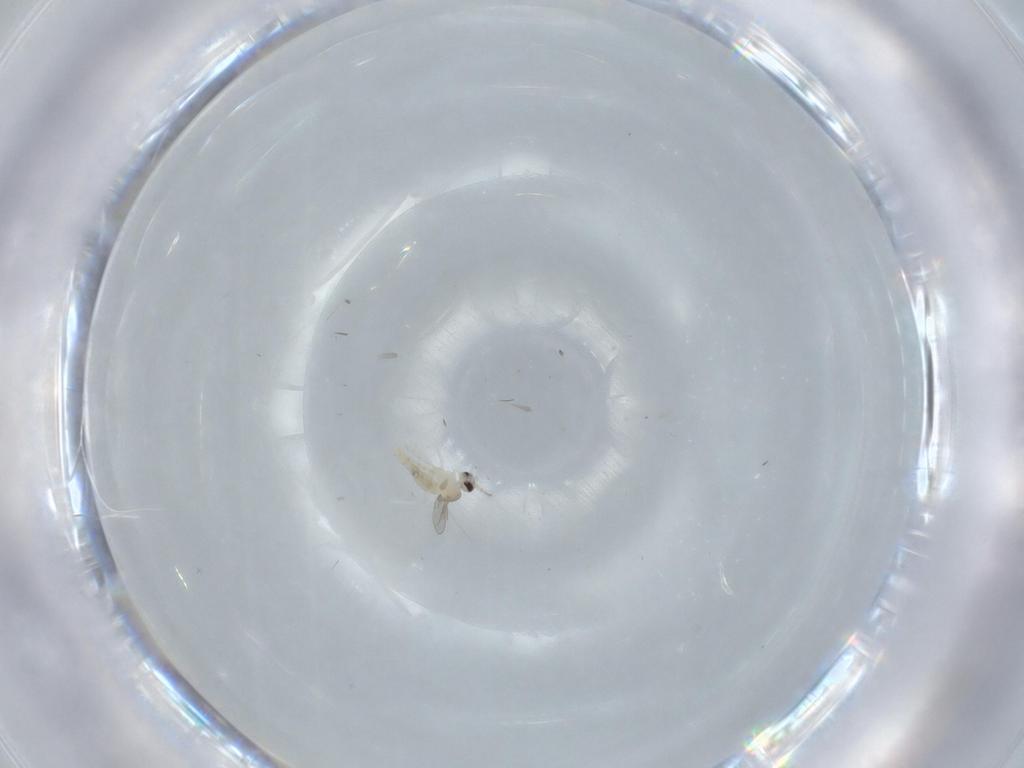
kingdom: Animalia
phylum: Arthropoda
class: Insecta
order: Diptera
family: Cecidomyiidae
